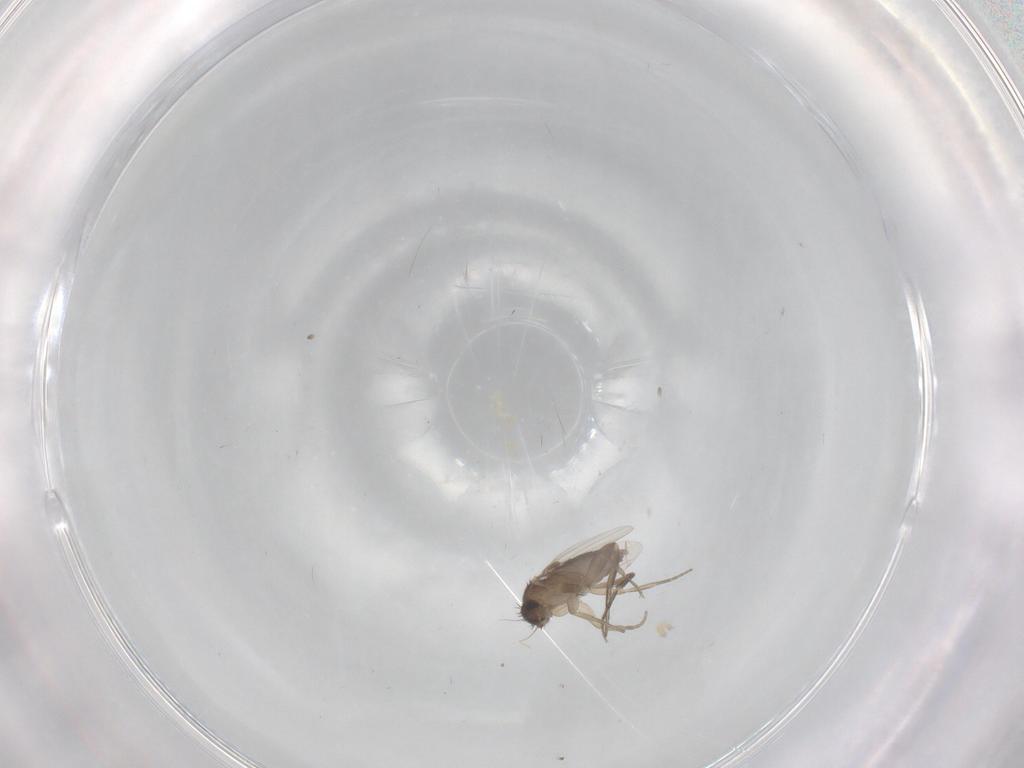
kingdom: Animalia
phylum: Arthropoda
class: Insecta
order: Diptera
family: Phoridae
